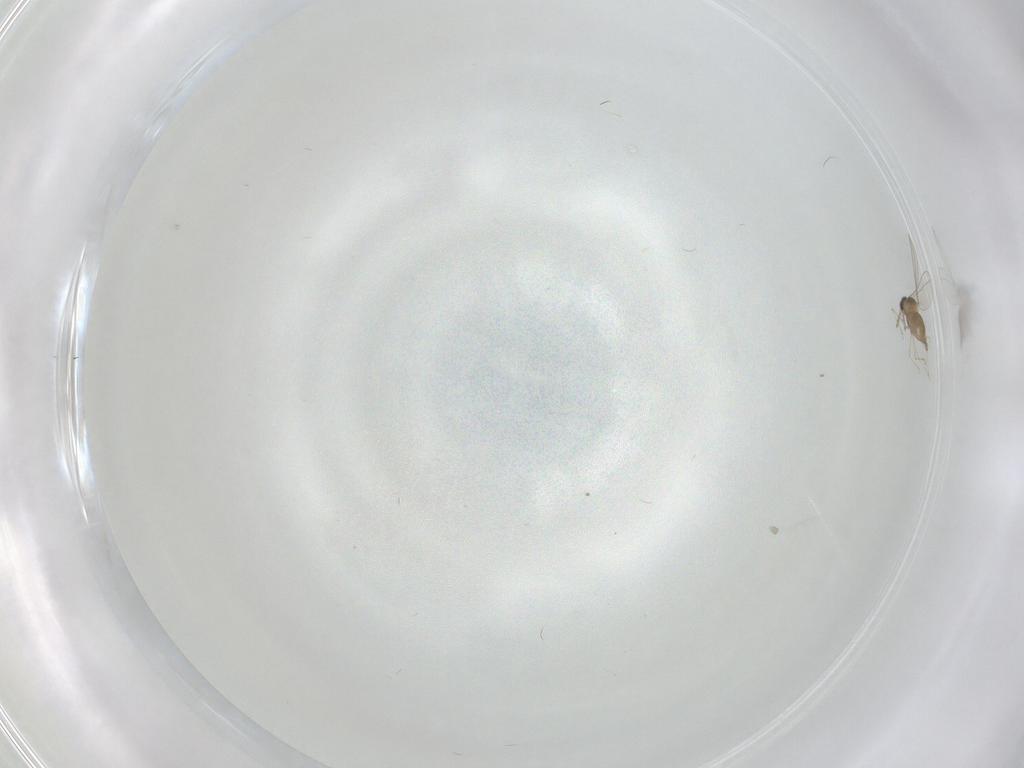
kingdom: Animalia
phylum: Arthropoda
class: Insecta
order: Diptera
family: Cecidomyiidae
